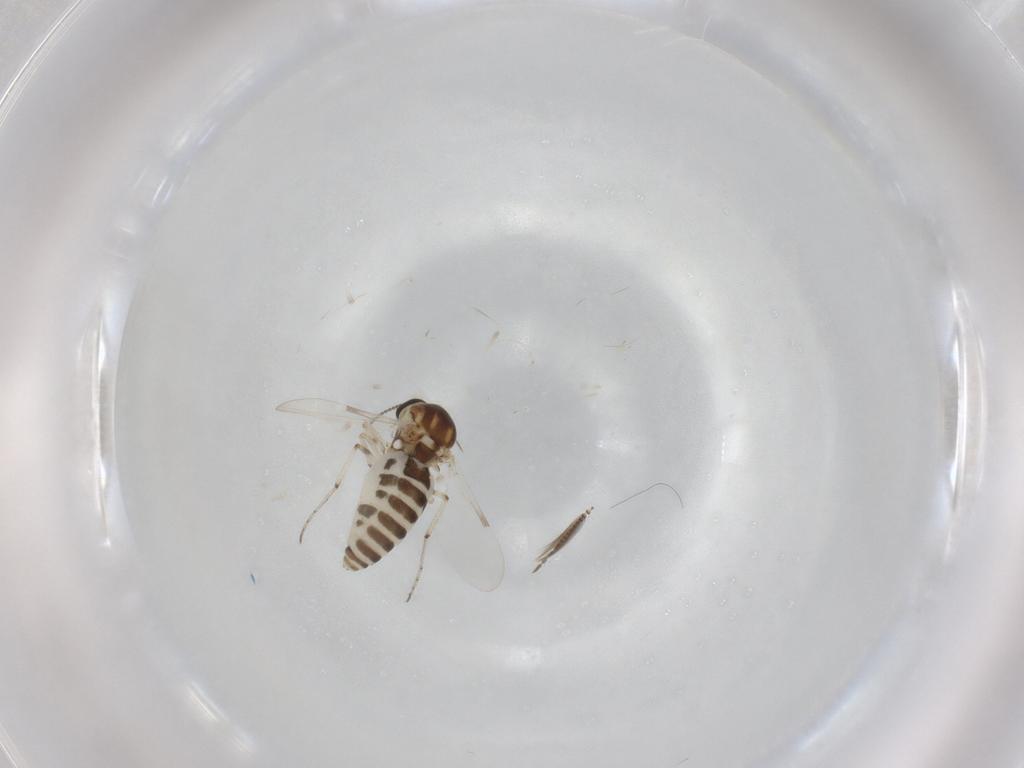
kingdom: Animalia
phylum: Arthropoda
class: Insecta
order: Diptera
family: Ceratopogonidae
